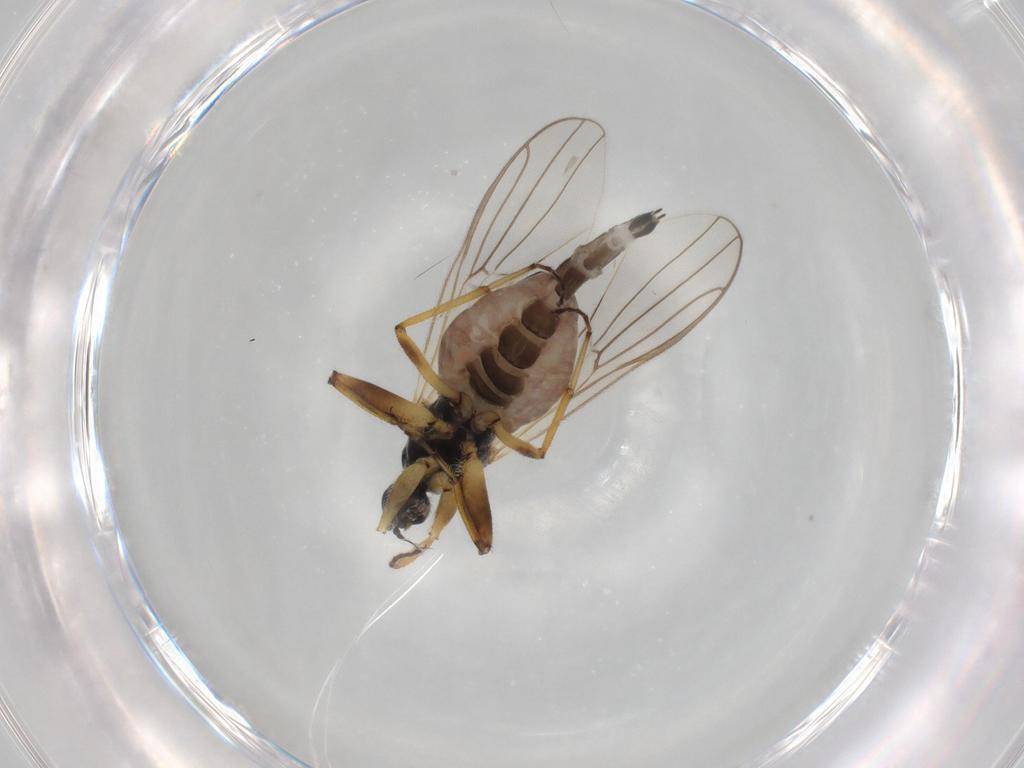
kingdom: Animalia
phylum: Arthropoda
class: Insecta
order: Diptera
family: Hybotidae
